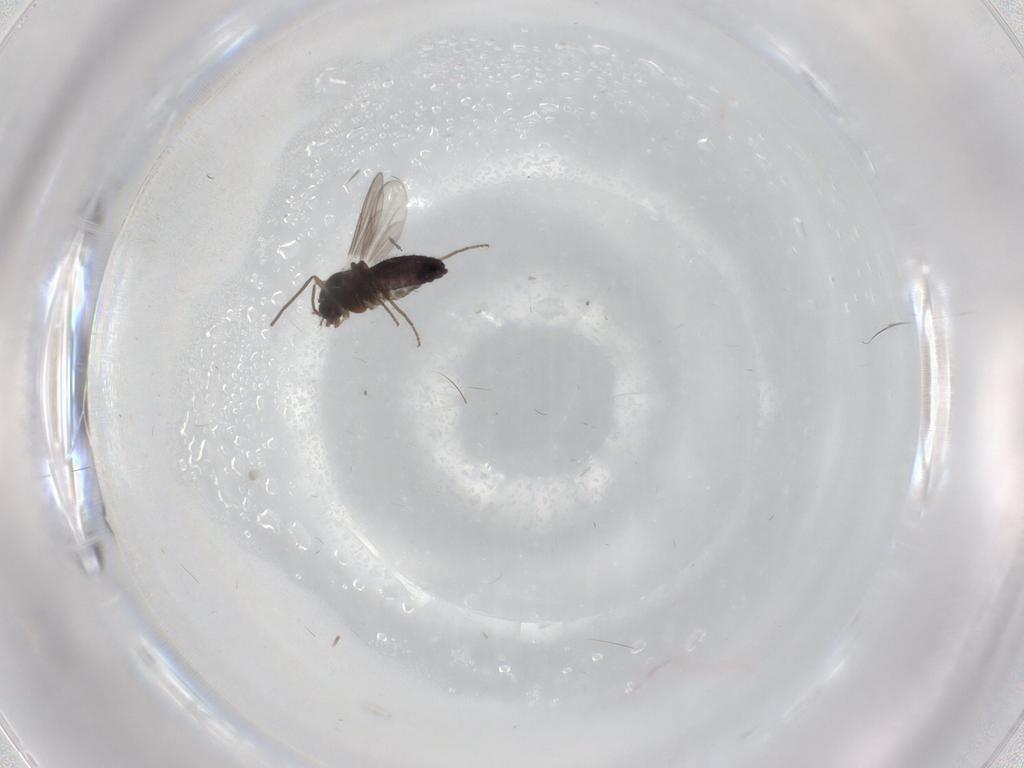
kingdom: Animalia
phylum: Arthropoda
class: Insecta
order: Diptera
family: Chironomidae
